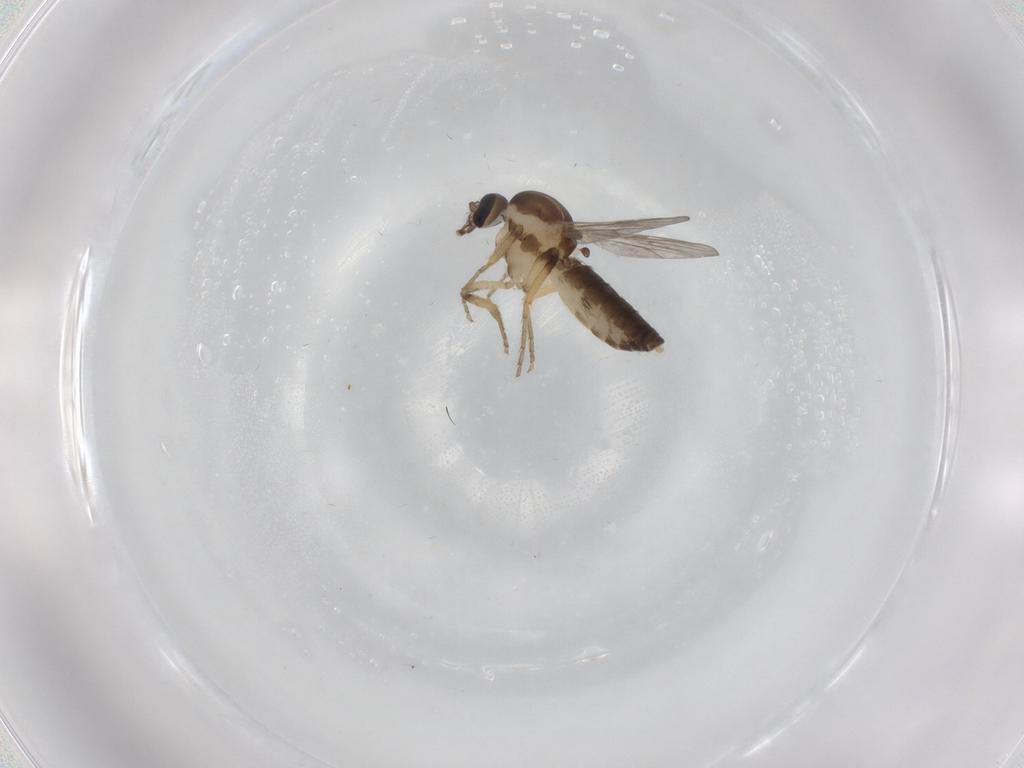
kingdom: Animalia
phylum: Arthropoda
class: Insecta
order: Diptera
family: Ceratopogonidae
